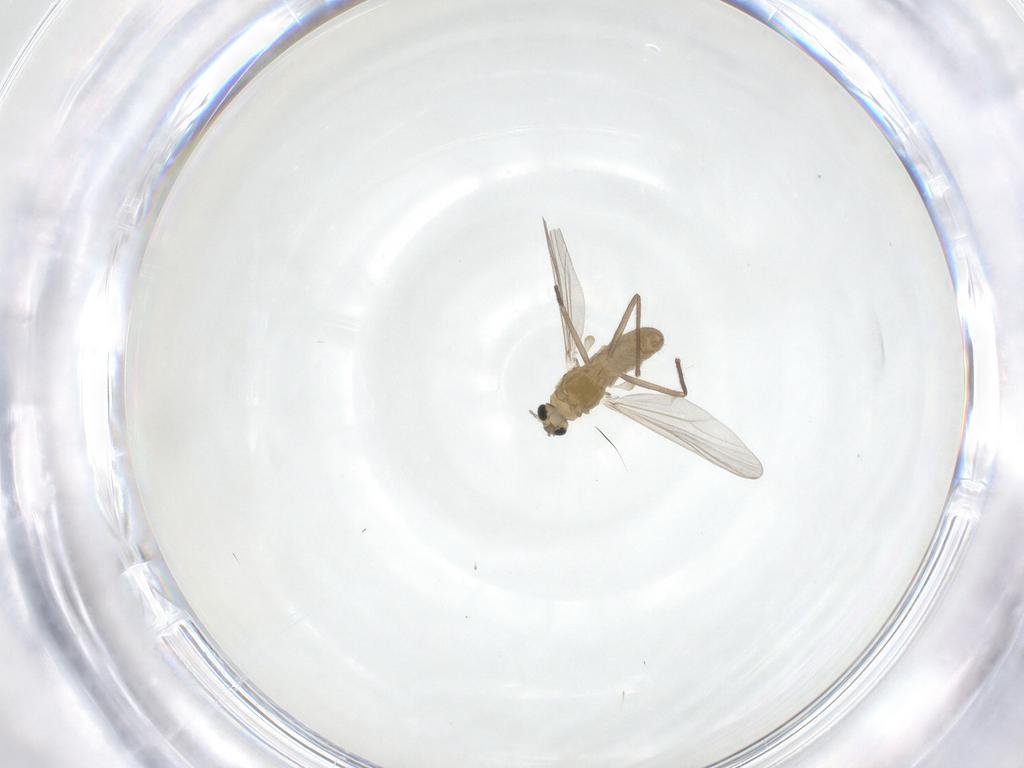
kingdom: Animalia
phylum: Arthropoda
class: Insecta
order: Diptera
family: Chironomidae
